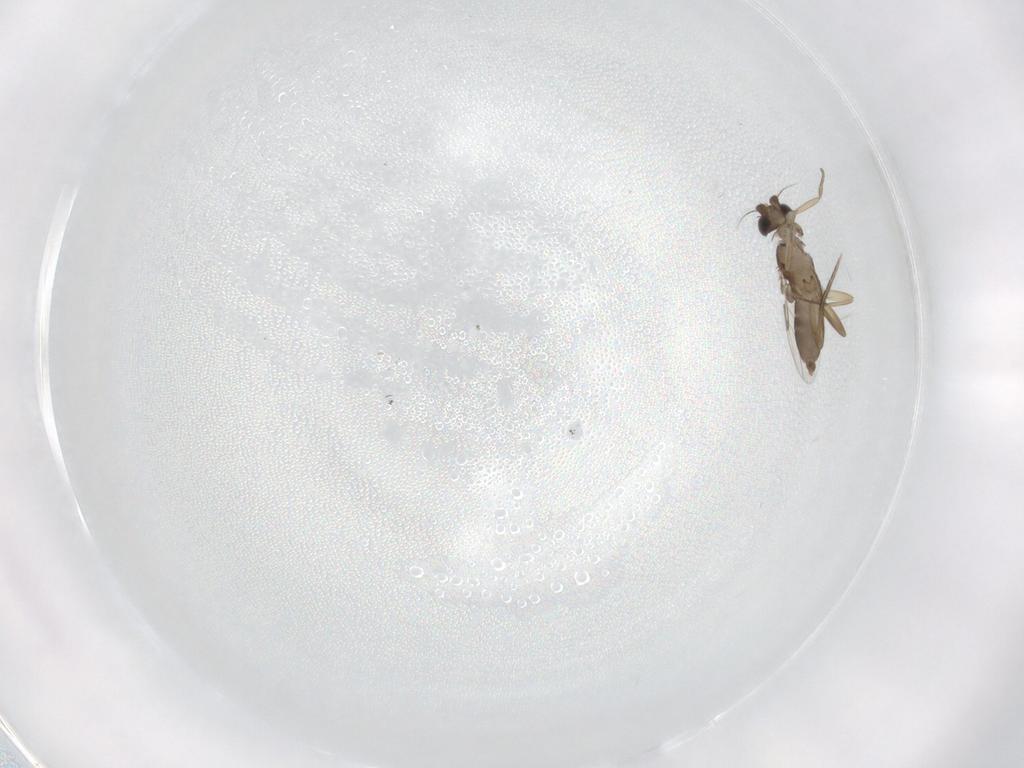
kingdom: Animalia
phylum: Arthropoda
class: Insecta
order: Diptera
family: Phoridae
